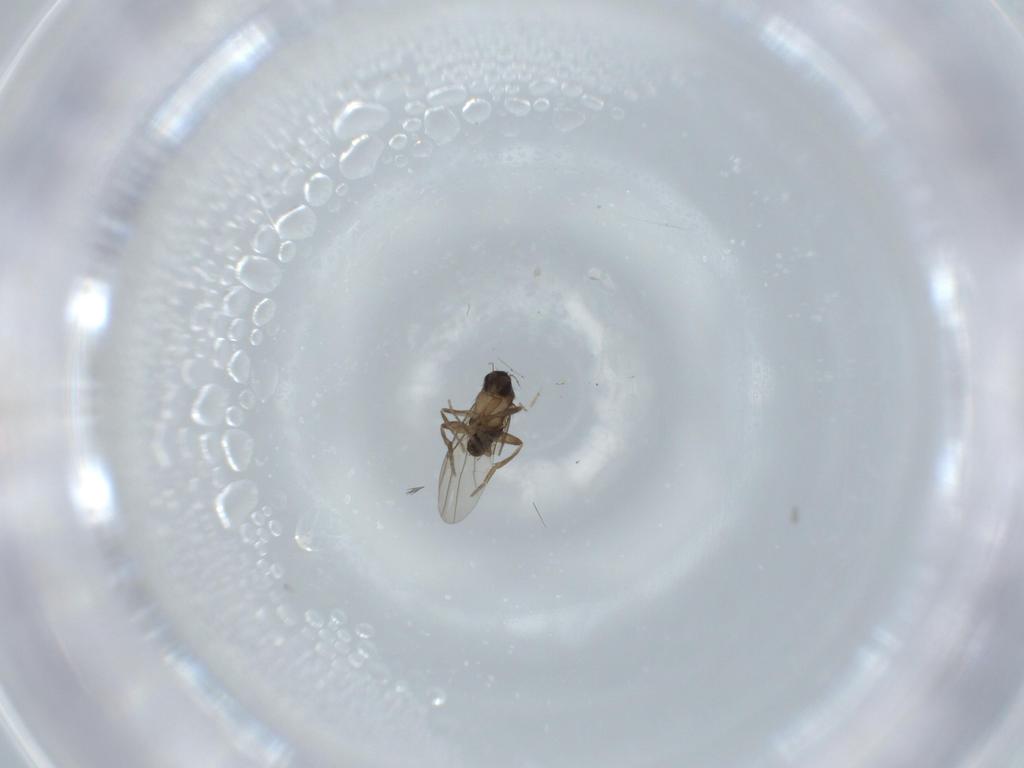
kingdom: Animalia
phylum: Arthropoda
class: Insecta
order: Diptera
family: Phoridae
